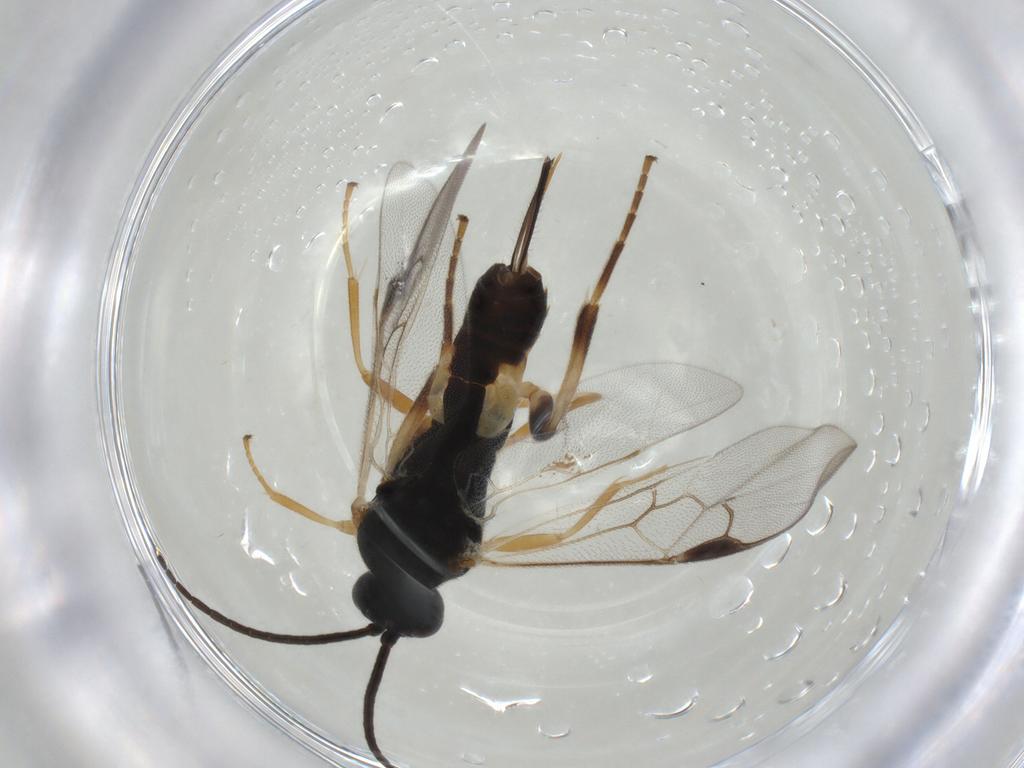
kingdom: Animalia
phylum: Arthropoda
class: Insecta
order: Hymenoptera
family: Braconidae
